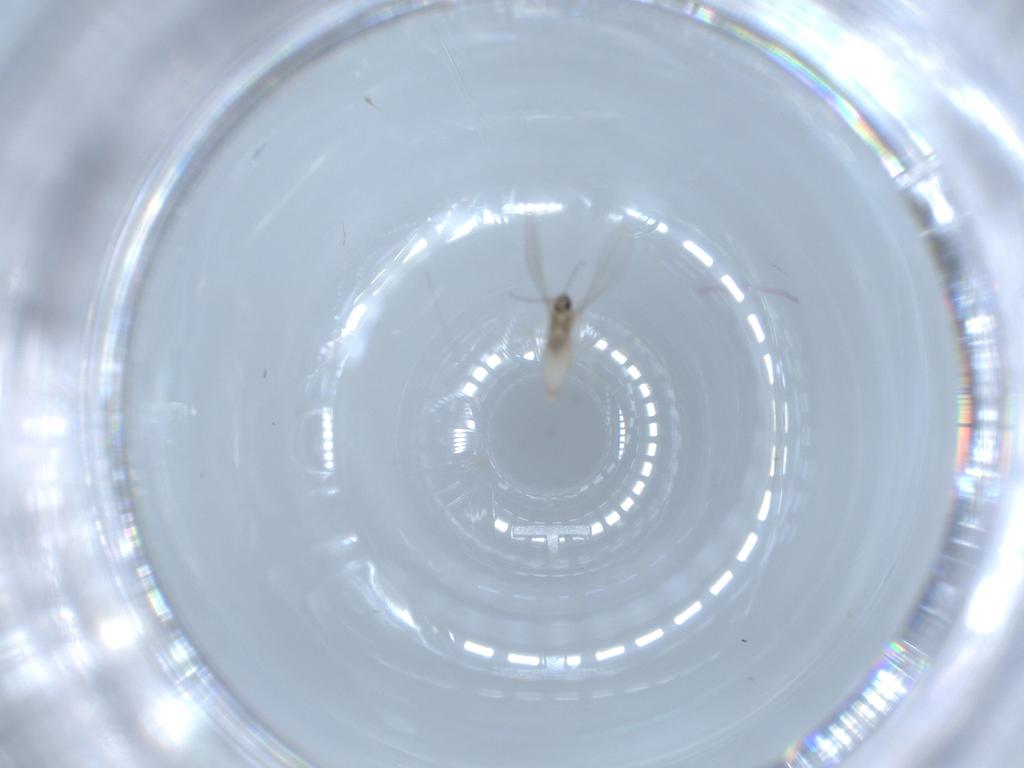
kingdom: Animalia
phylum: Arthropoda
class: Insecta
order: Diptera
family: Cecidomyiidae
